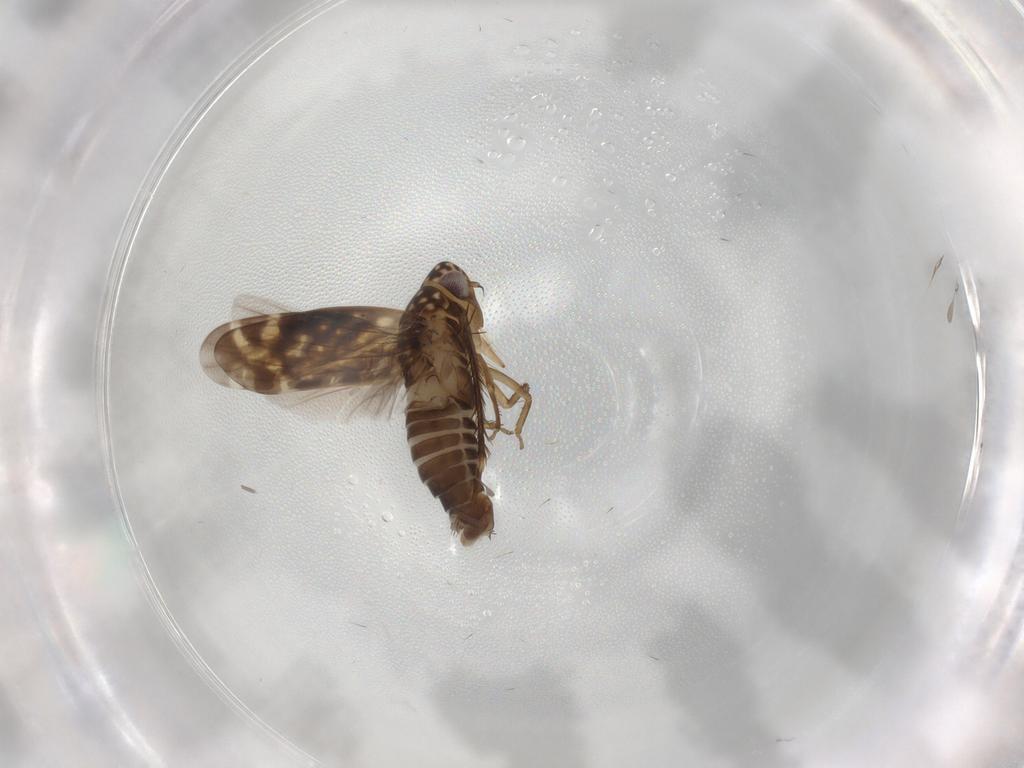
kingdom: Animalia
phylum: Arthropoda
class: Insecta
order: Hemiptera
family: Cicadellidae
